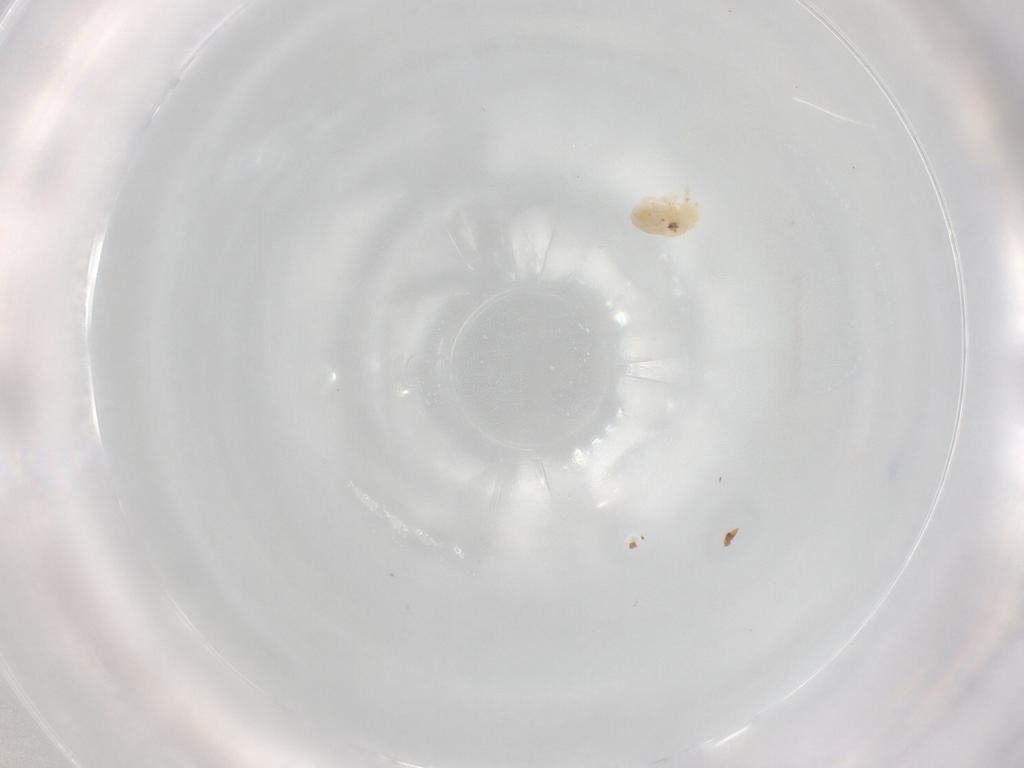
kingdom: Animalia
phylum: Arthropoda
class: Arachnida
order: Trombidiformes
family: Rhagidiidae
